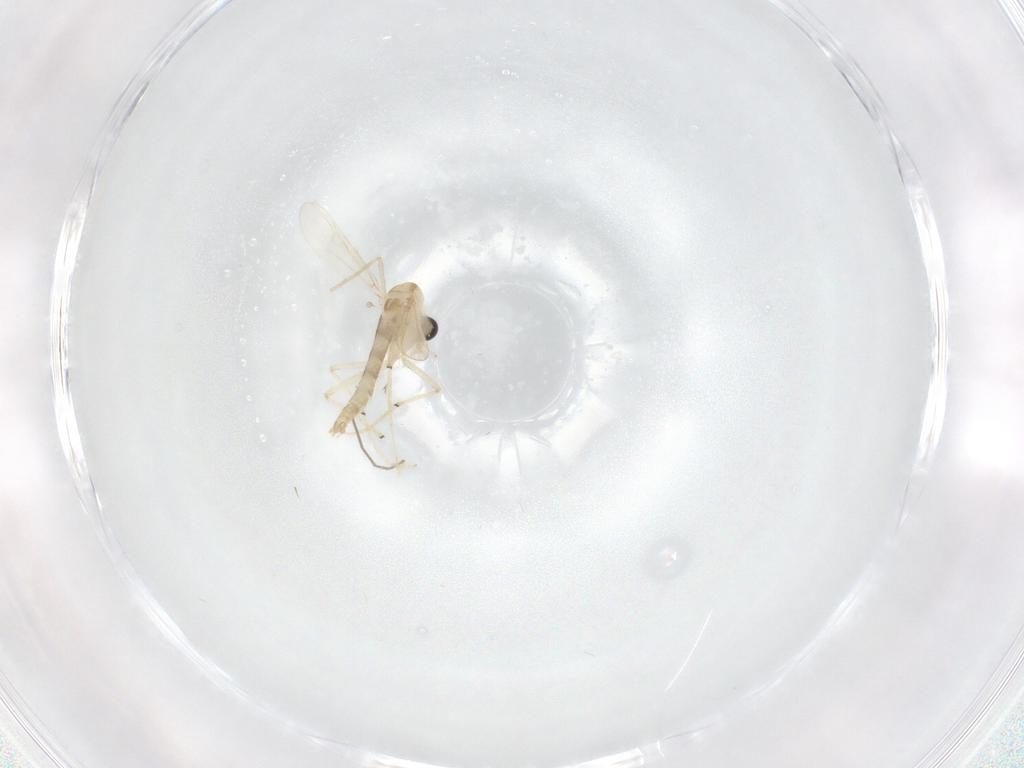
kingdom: Animalia
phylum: Arthropoda
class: Insecta
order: Diptera
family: Chironomidae
